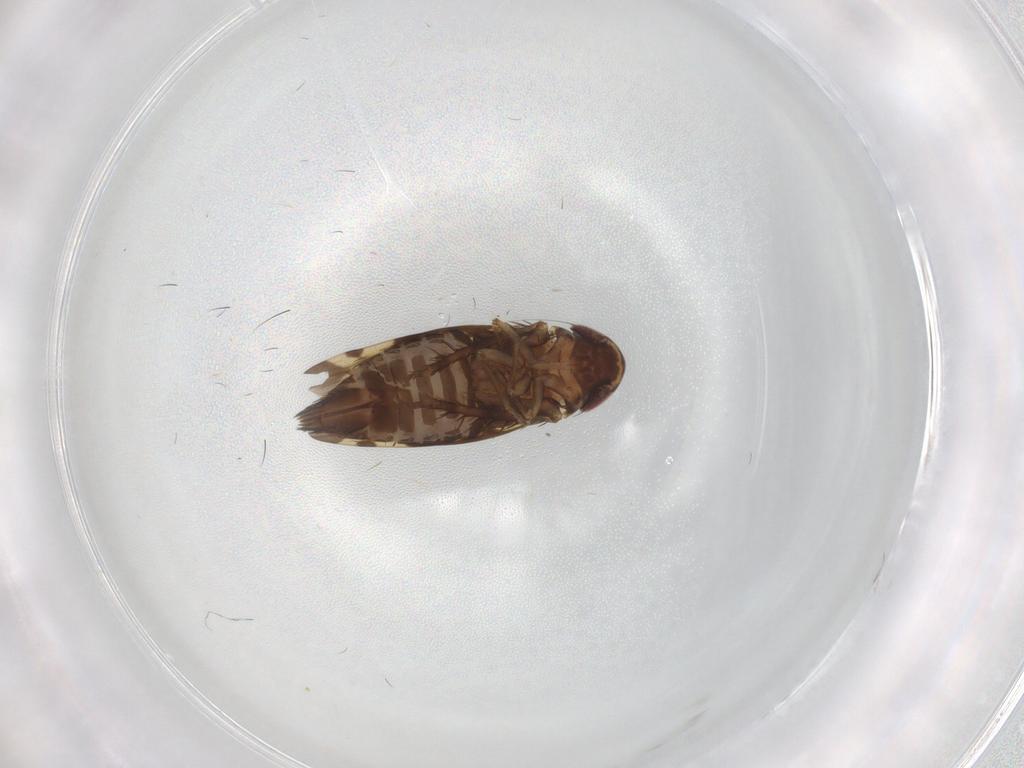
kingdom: Animalia
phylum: Arthropoda
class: Insecta
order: Hemiptera
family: Cicadellidae
